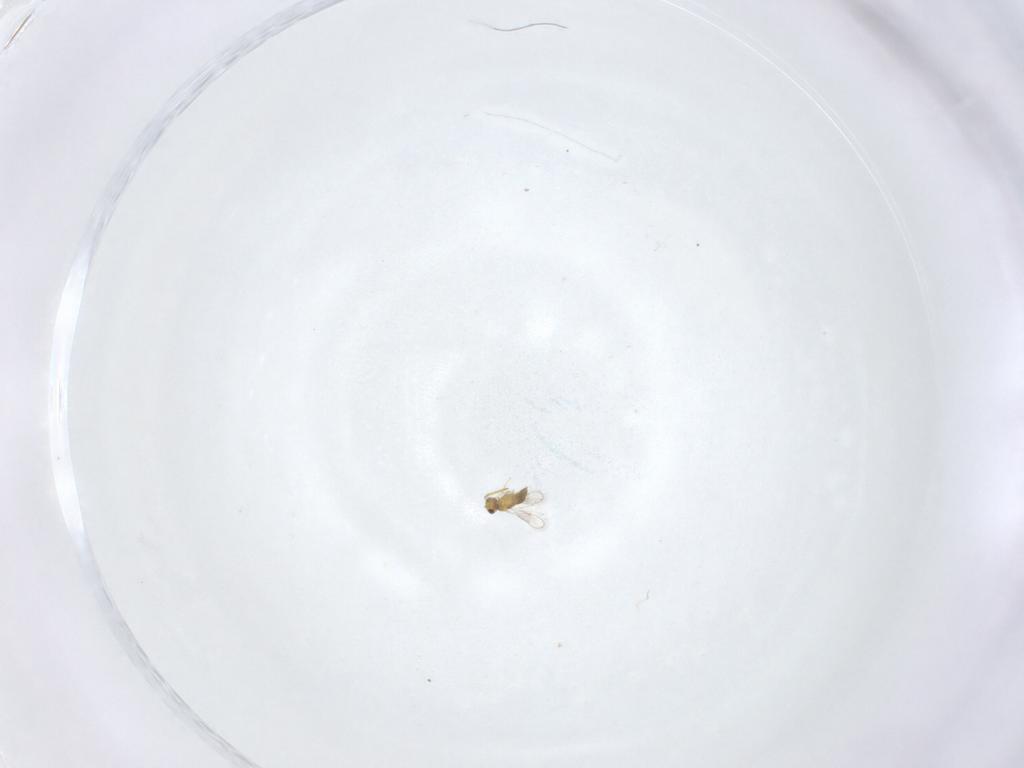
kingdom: Animalia
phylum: Arthropoda
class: Insecta
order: Hymenoptera
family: Aphelinidae
